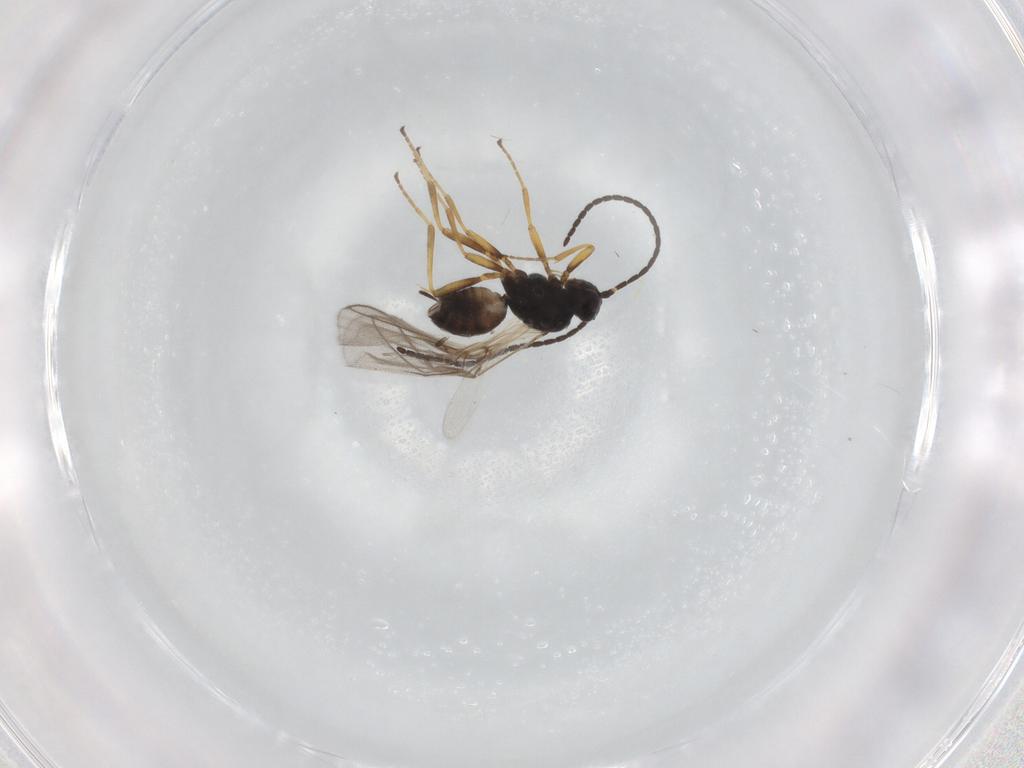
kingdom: Animalia
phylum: Arthropoda
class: Insecta
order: Hymenoptera
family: Braconidae
